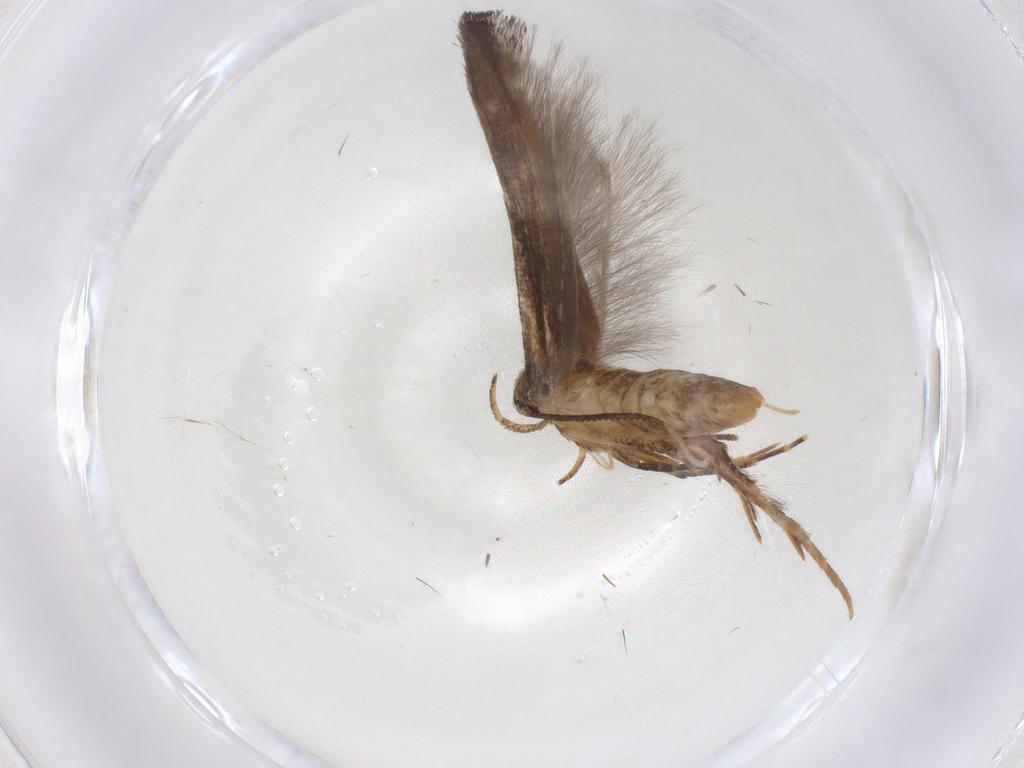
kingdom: Animalia
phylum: Arthropoda
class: Insecta
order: Lepidoptera
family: Cosmopterigidae
